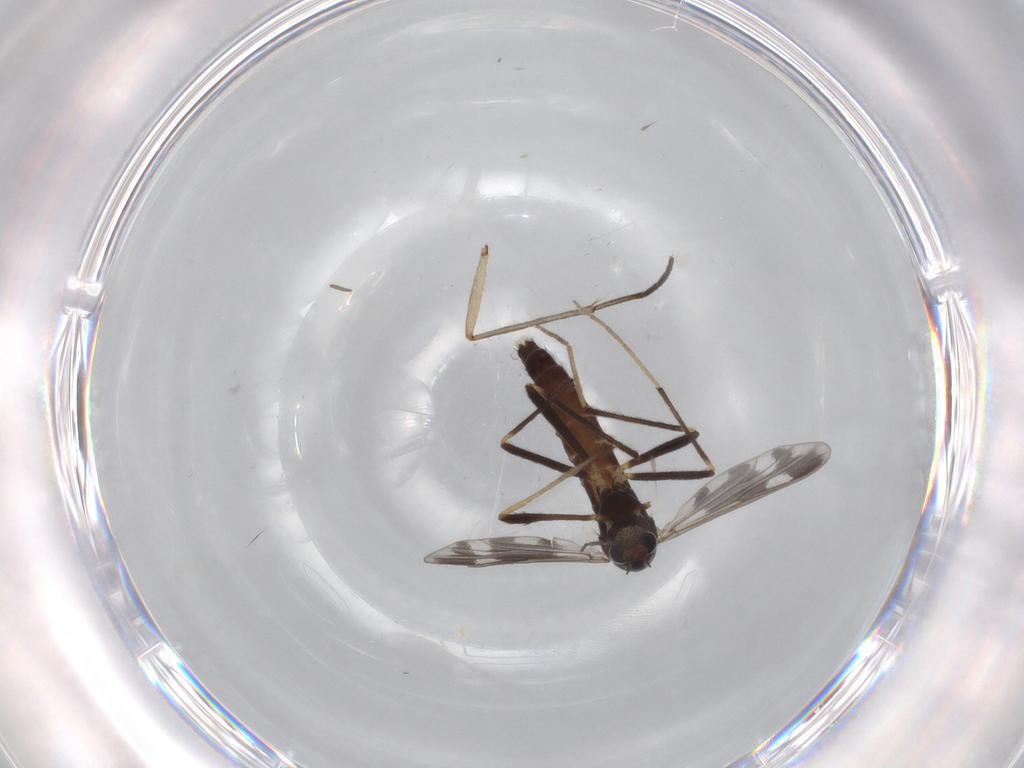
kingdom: Animalia
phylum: Arthropoda
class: Insecta
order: Diptera
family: Chironomidae
